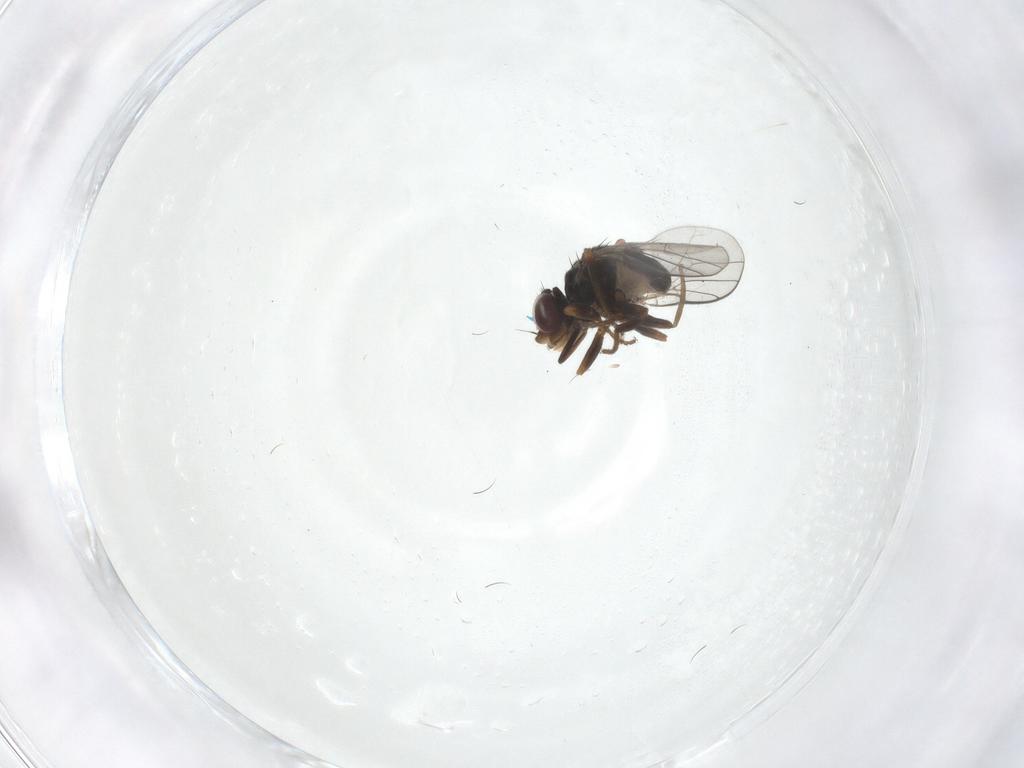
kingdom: Animalia
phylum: Arthropoda
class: Insecta
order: Diptera
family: Chloropidae
